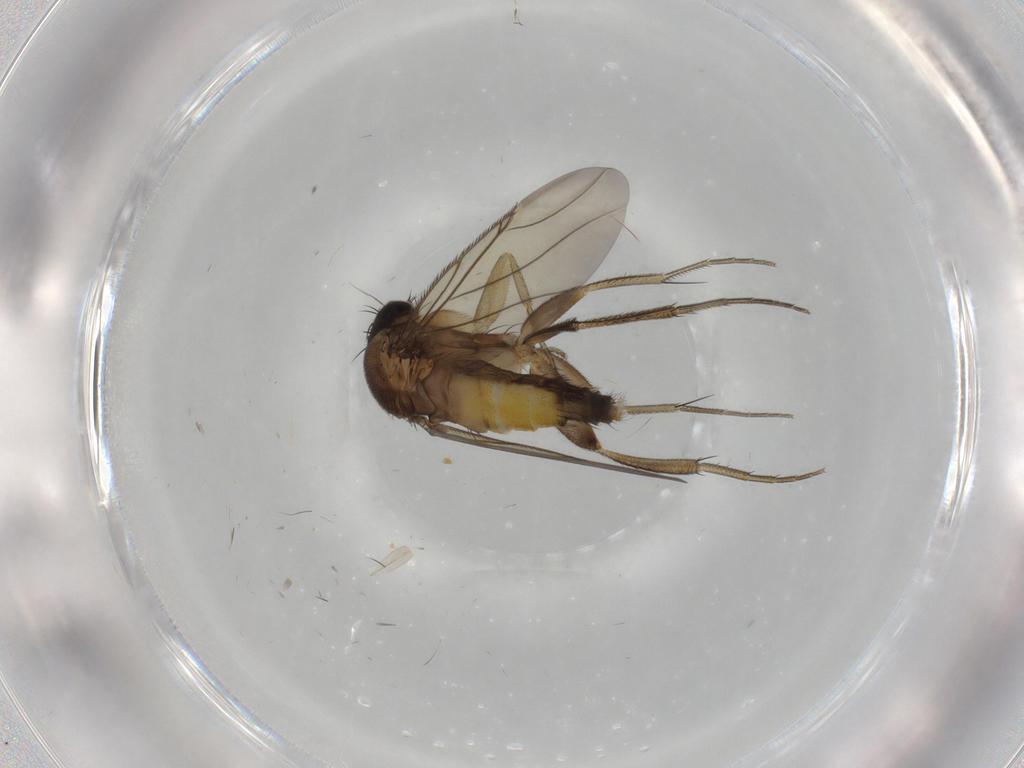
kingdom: Animalia
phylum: Arthropoda
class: Insecta
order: Diptera
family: Phoridae
